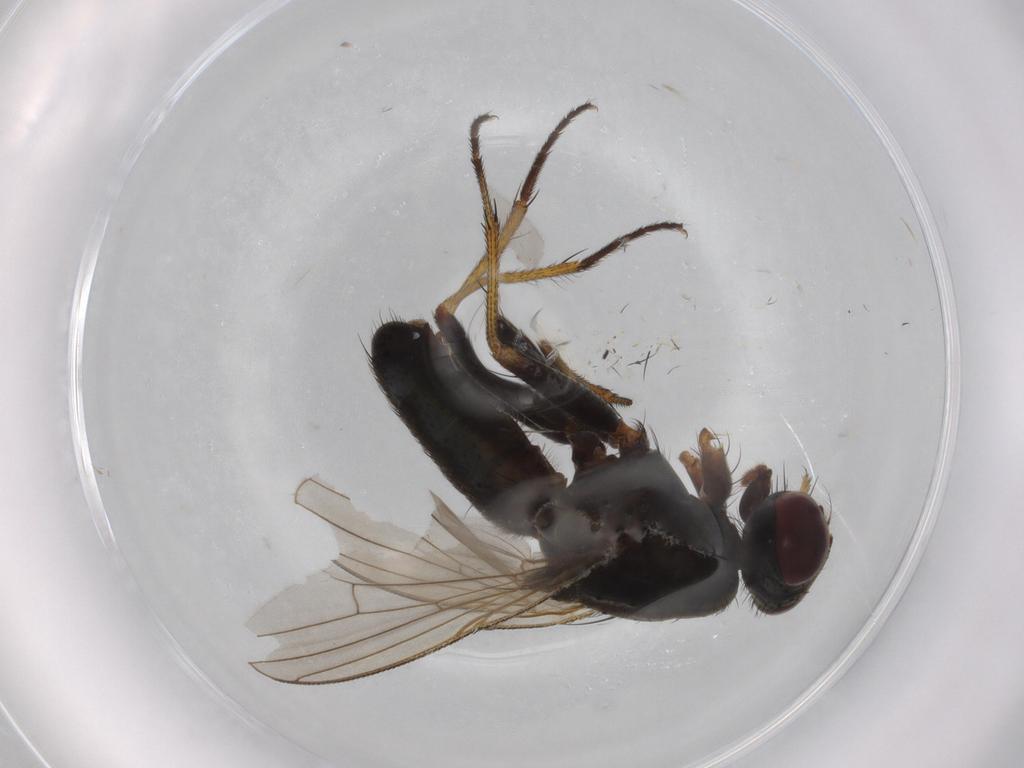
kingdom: Animalia
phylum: Arthropoda
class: Insecta
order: Diptera
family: Muscidae
